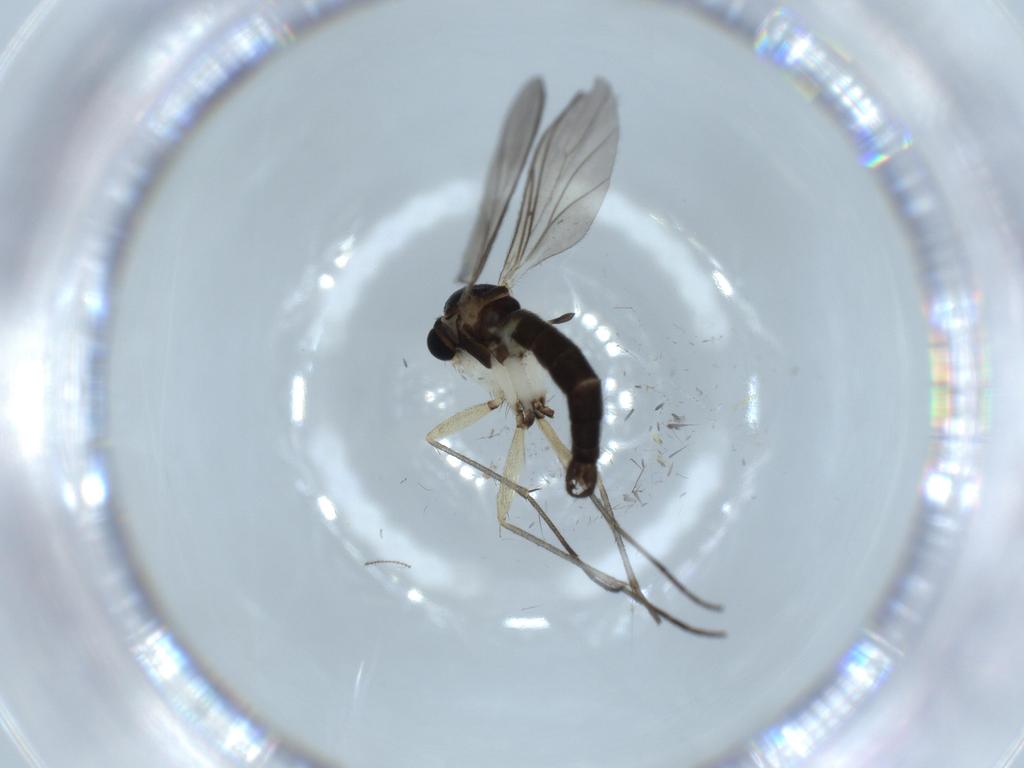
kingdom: Animalia
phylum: Arthropoda
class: Insecta
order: Diptera
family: Sciaridae
